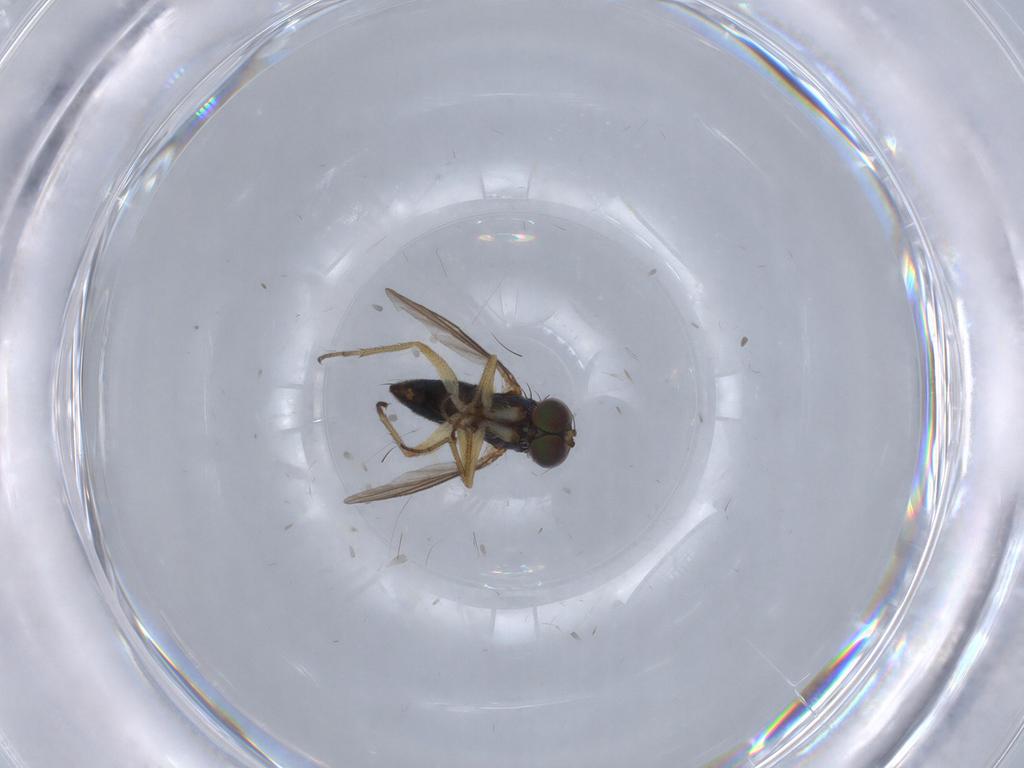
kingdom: Animalia
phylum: Arthropoda
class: Insecta
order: Diptera
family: Dolichopodidae
